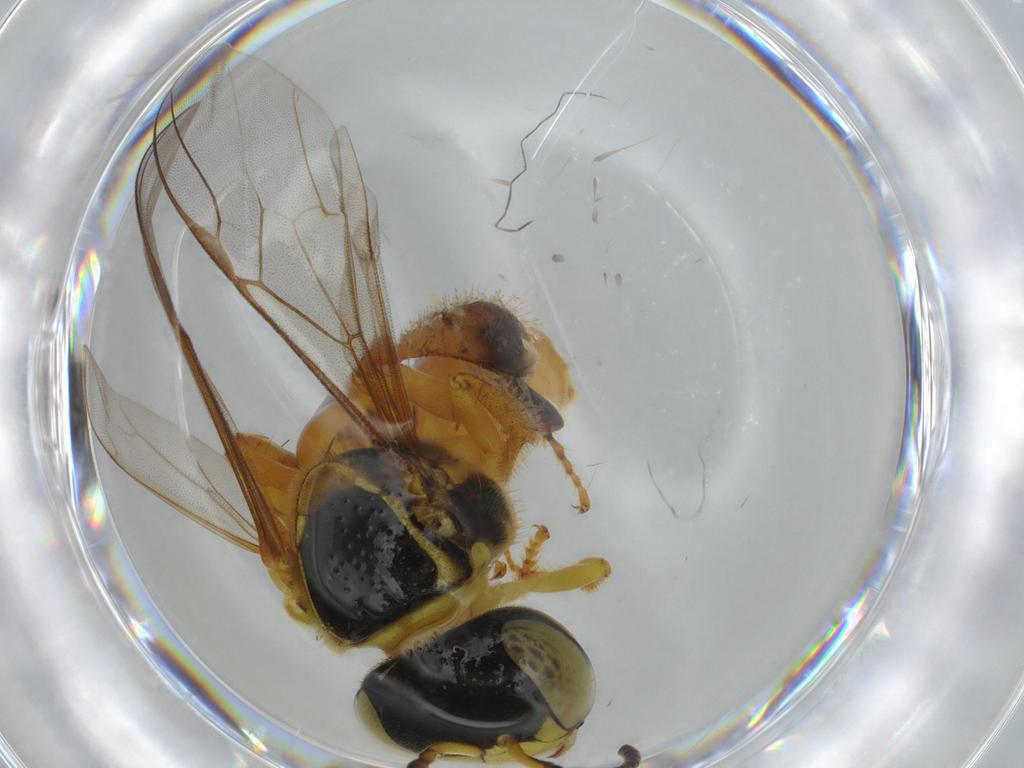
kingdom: Animalia
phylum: Arthropoda
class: Insecta
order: Hymenoptera
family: Apidae
